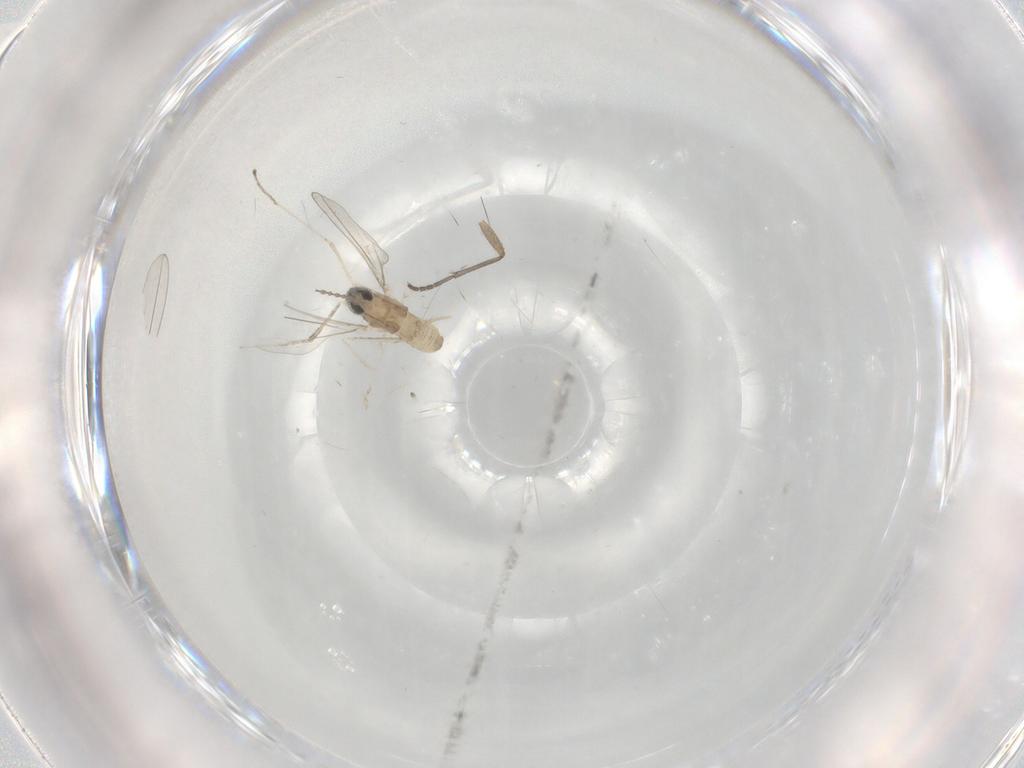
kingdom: Animalia
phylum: Arthropoda
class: Insecta
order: Diptera
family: Cecidomyiidae
